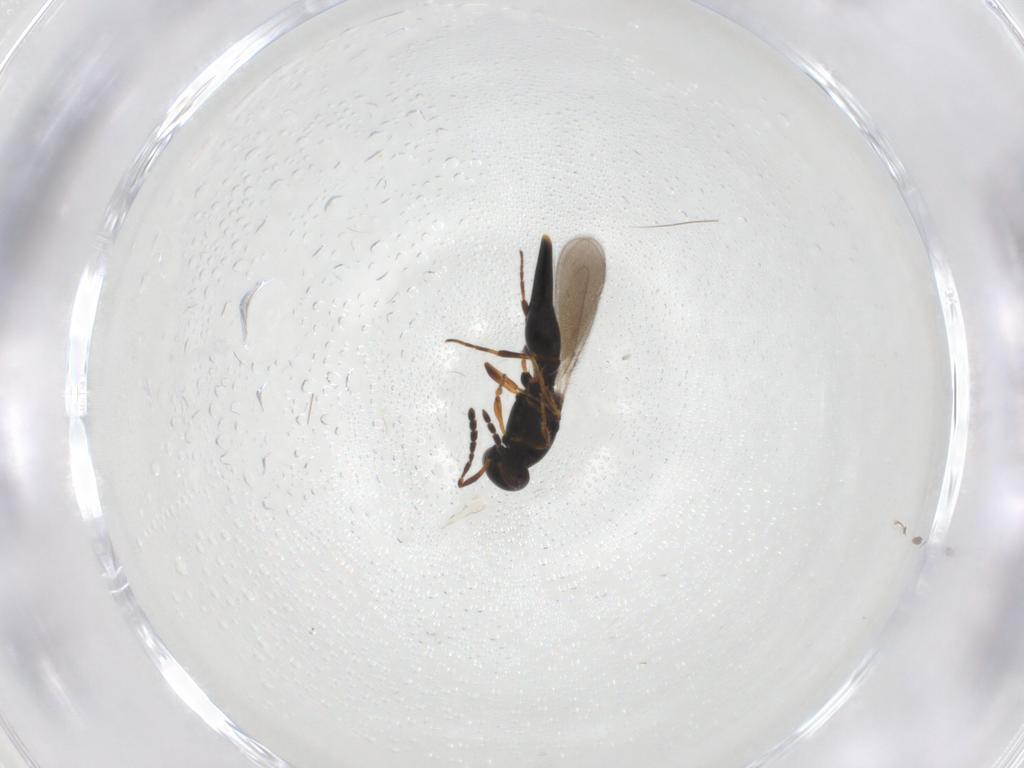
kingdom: Animalia
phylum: Arthropoda
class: Insecta
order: Hymenoptera
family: Platygastridae
